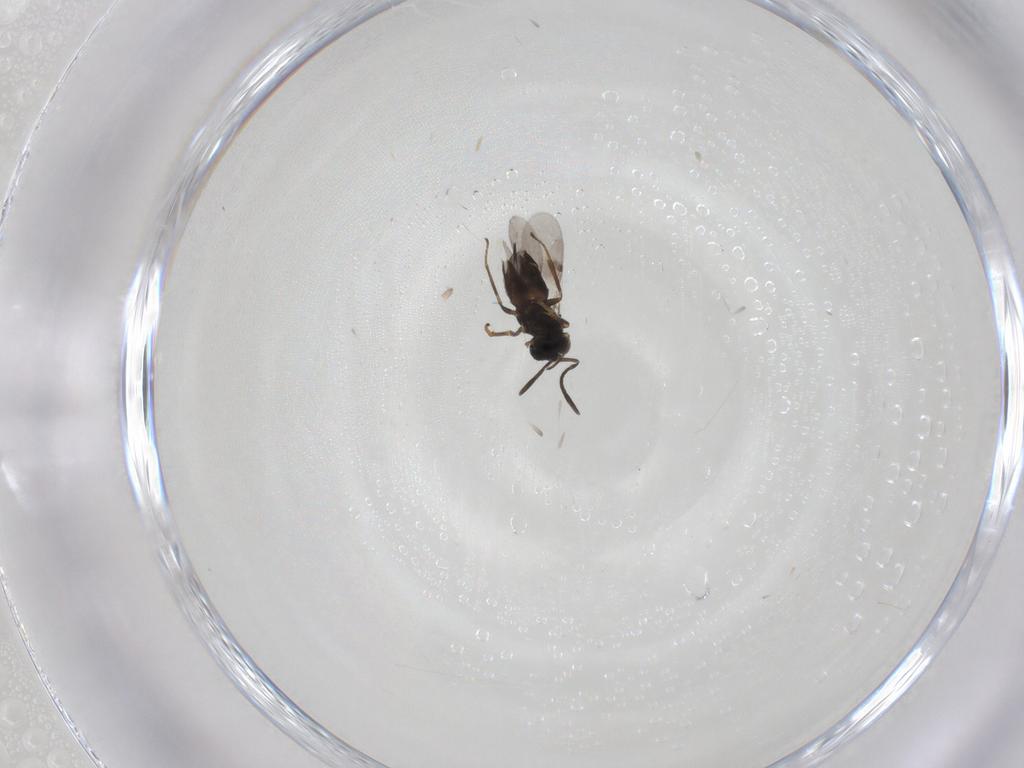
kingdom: Animalia
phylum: Arthropoda
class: Insecta
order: Hymenoptera
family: Encyrtidae
